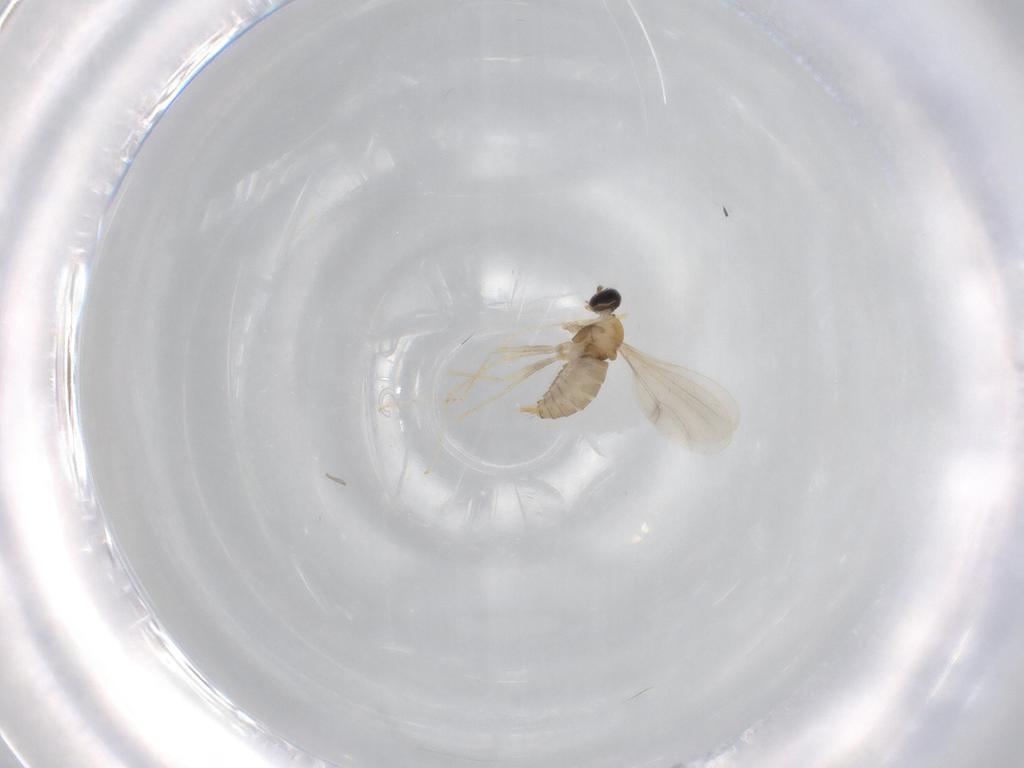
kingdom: Animalia
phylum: Arthropoda
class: Insecta
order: Diptera
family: Cecidomyiidae
